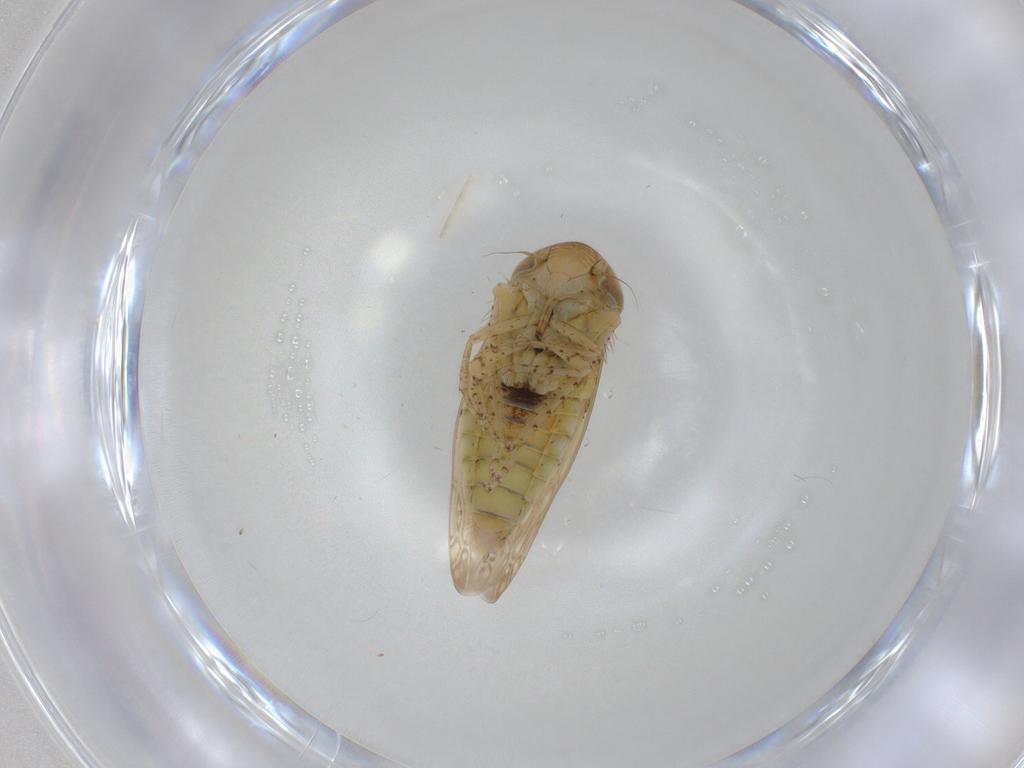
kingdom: Animalia
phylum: Arthropoda
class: Insecta
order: Hemiptera
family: Cicadellidae
